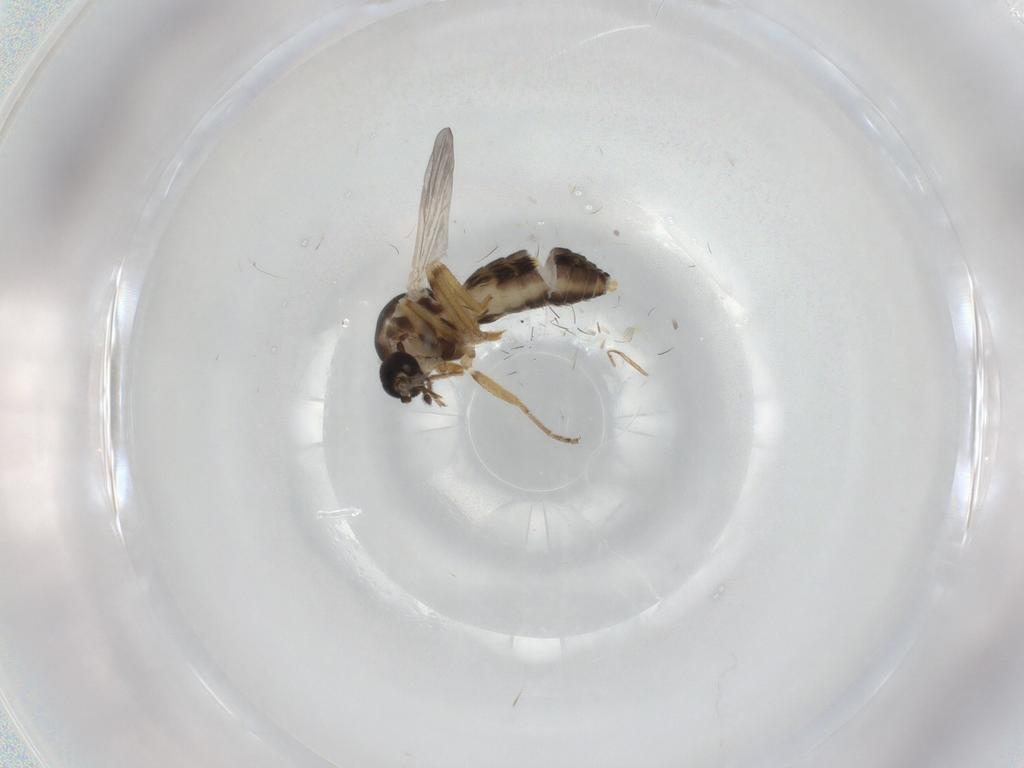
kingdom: Animalia
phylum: Arthropoda
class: Insecta
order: Diptera
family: Ceratopogonidae
